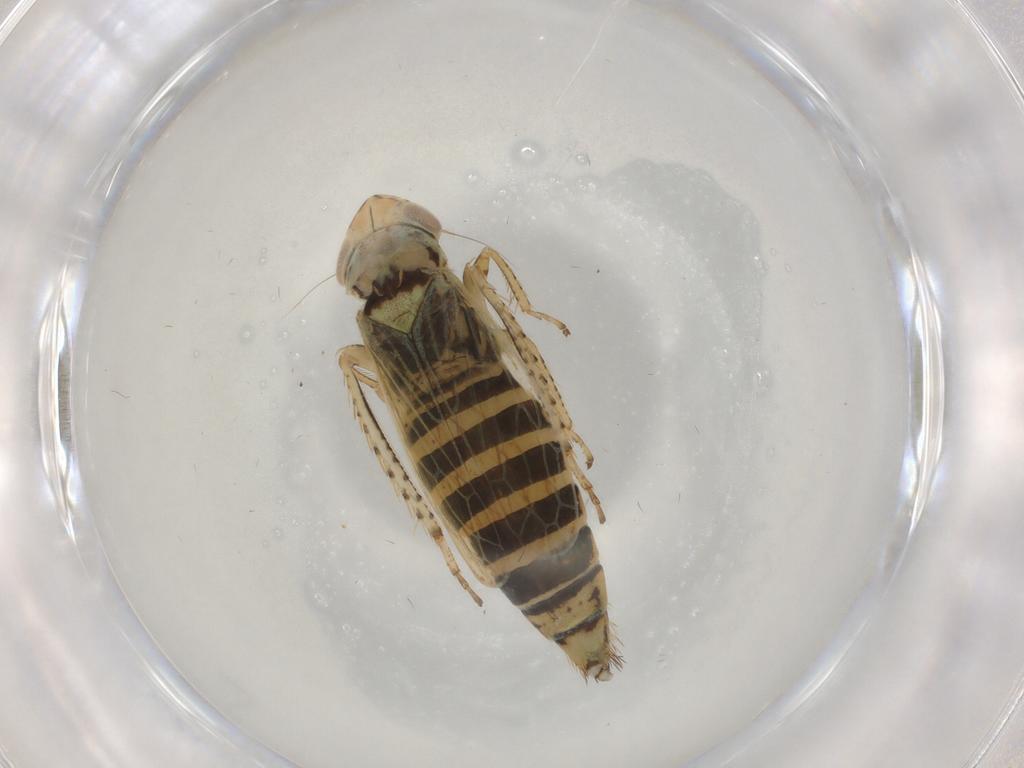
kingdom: Animalia
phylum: Arthropoda
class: Insecta
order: Hemiptera
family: Cicadellidae
